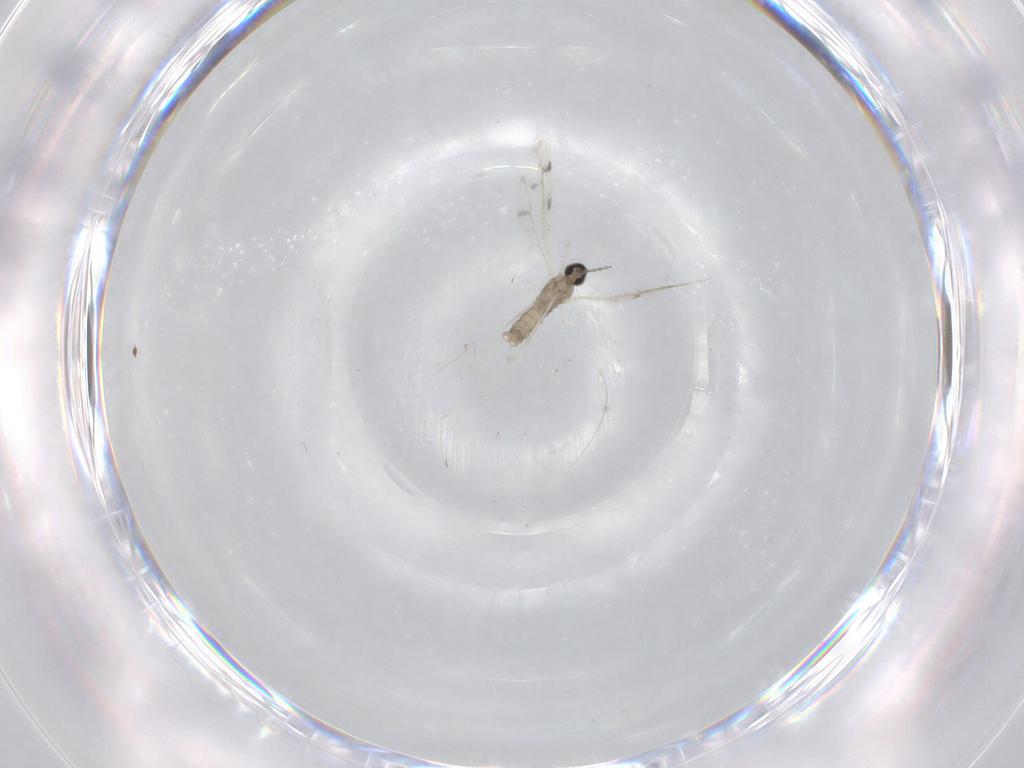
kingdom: Animalia
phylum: Arthropoda
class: Insecta
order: Diptera
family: Cecidomyiidae
